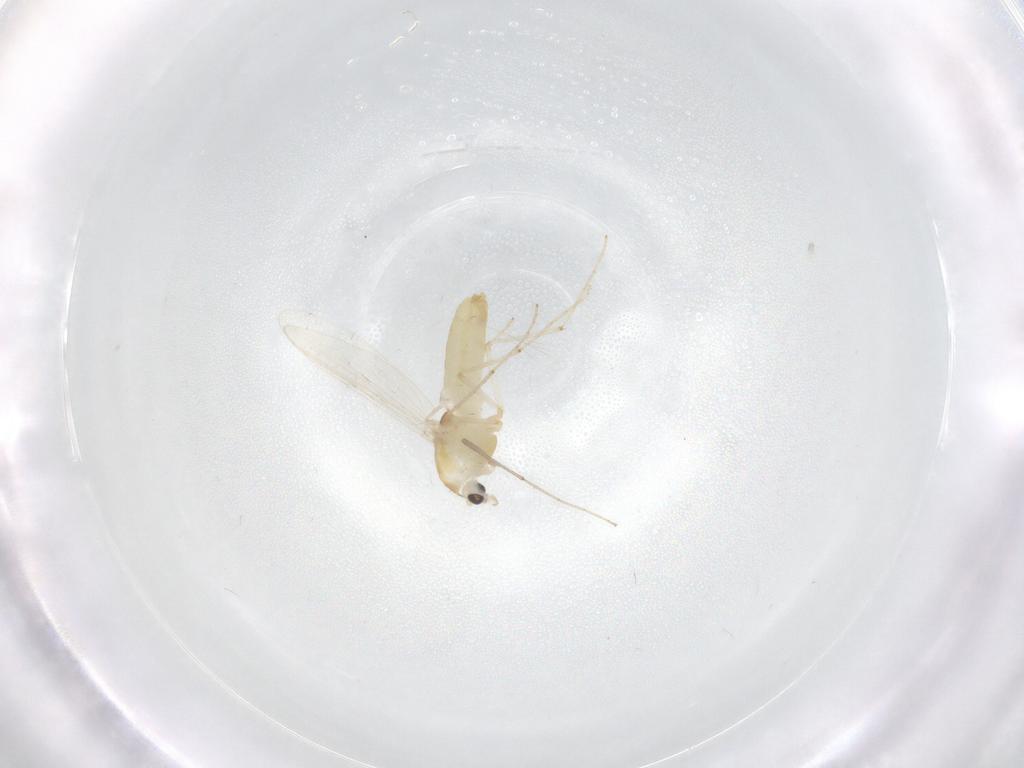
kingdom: Animalia
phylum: Arthropoda
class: Insecta
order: Diptera
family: Chironomidae
